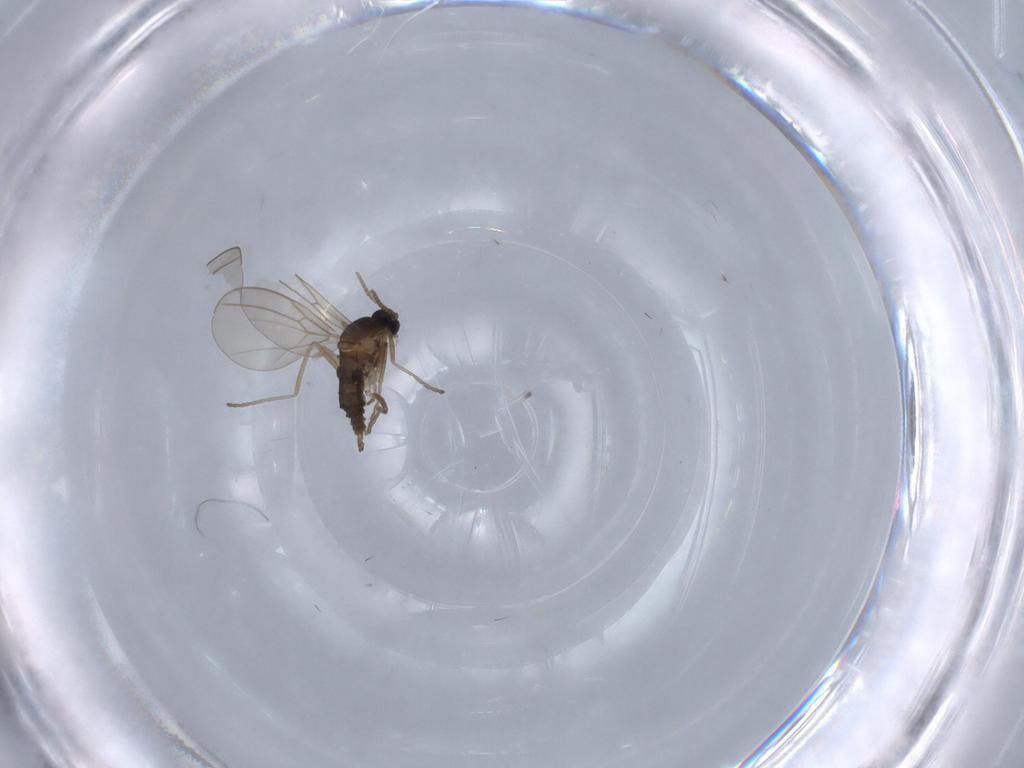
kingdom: Animalia
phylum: Arthropoda
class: Insecta
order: Diptera
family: Cecidomyiidae
